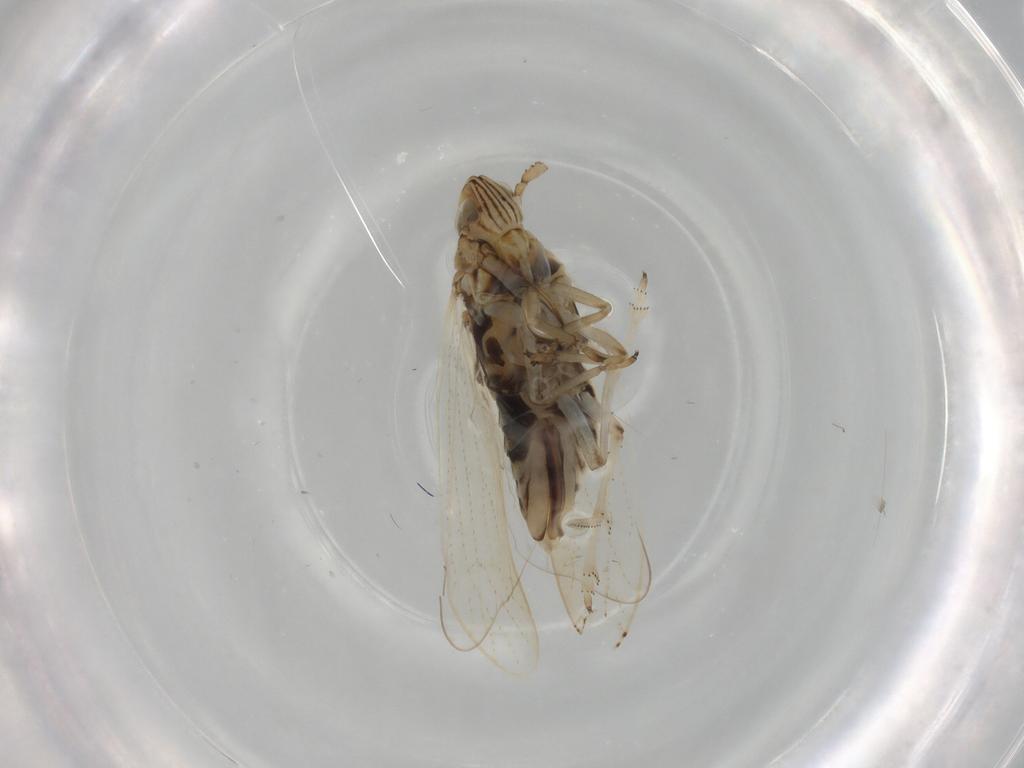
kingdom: Animalia
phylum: Arthropoda
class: Insecta
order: Hemiptera
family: Delphacidae
